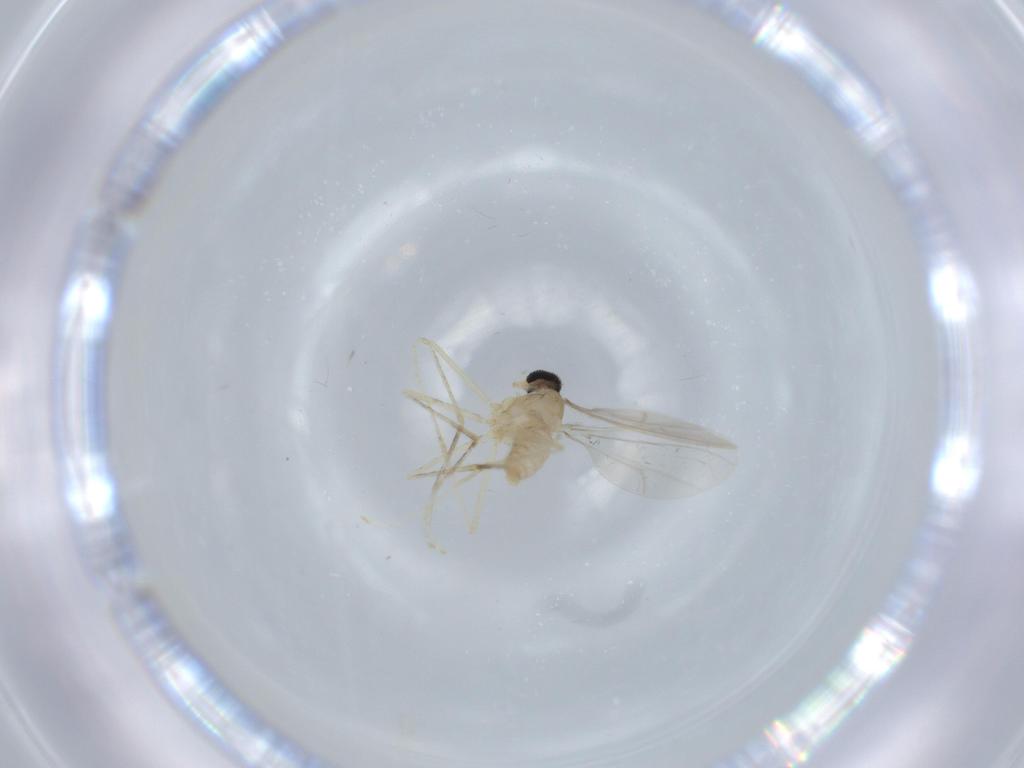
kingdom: Animalia
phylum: Arthropoda
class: Insecta
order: Diptera
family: Cecidomyiidae
